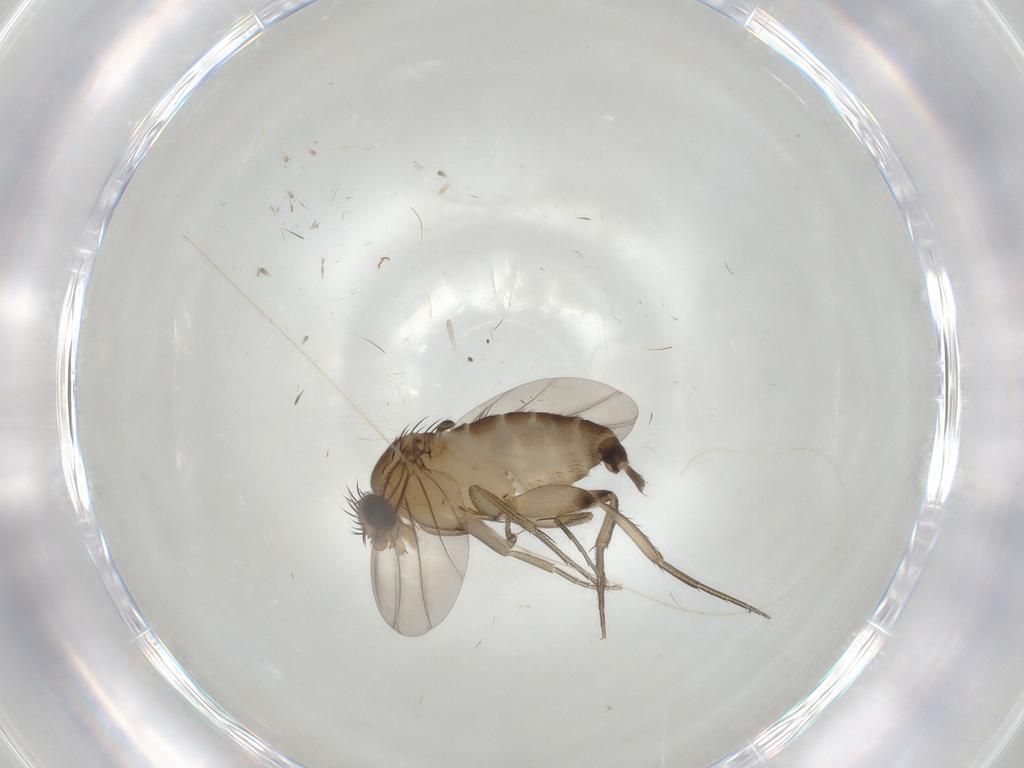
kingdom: Animalia
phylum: Arthropoda
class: Insecta
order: Diptera
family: Phoridae
